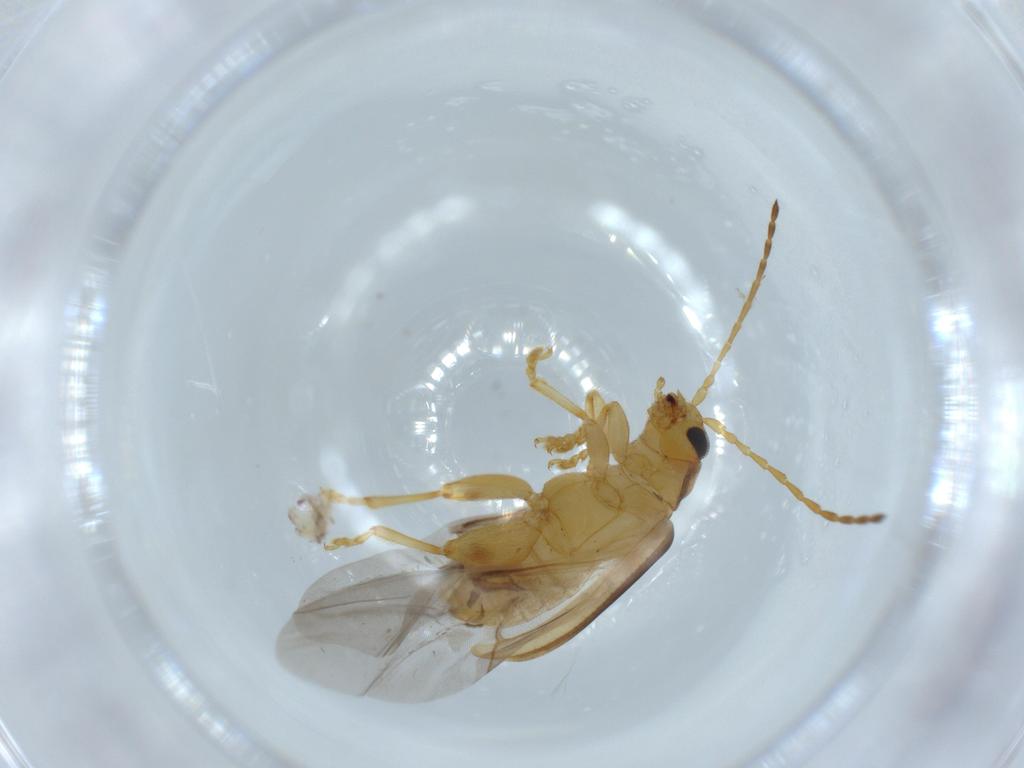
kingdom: Animalia
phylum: Arthropoda
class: Insecta
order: Coleoptera
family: Chrysomelidae
